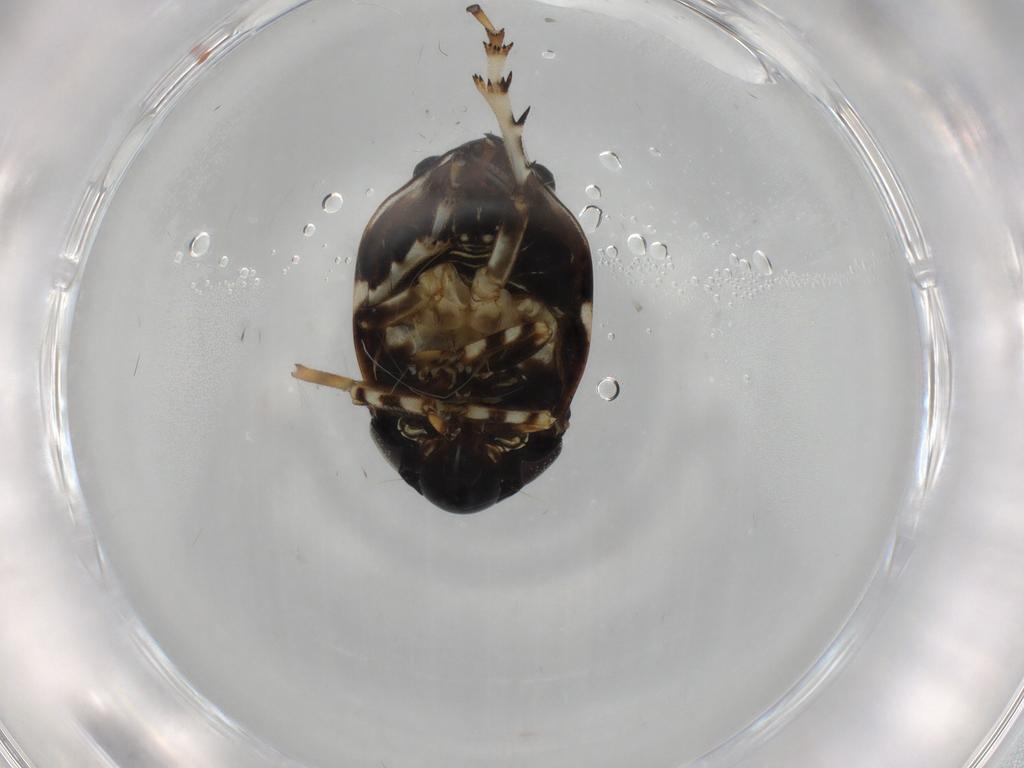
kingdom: Animalia
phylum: Arthropoda
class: Insecta
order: Hemiptera
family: Clastopteridae
